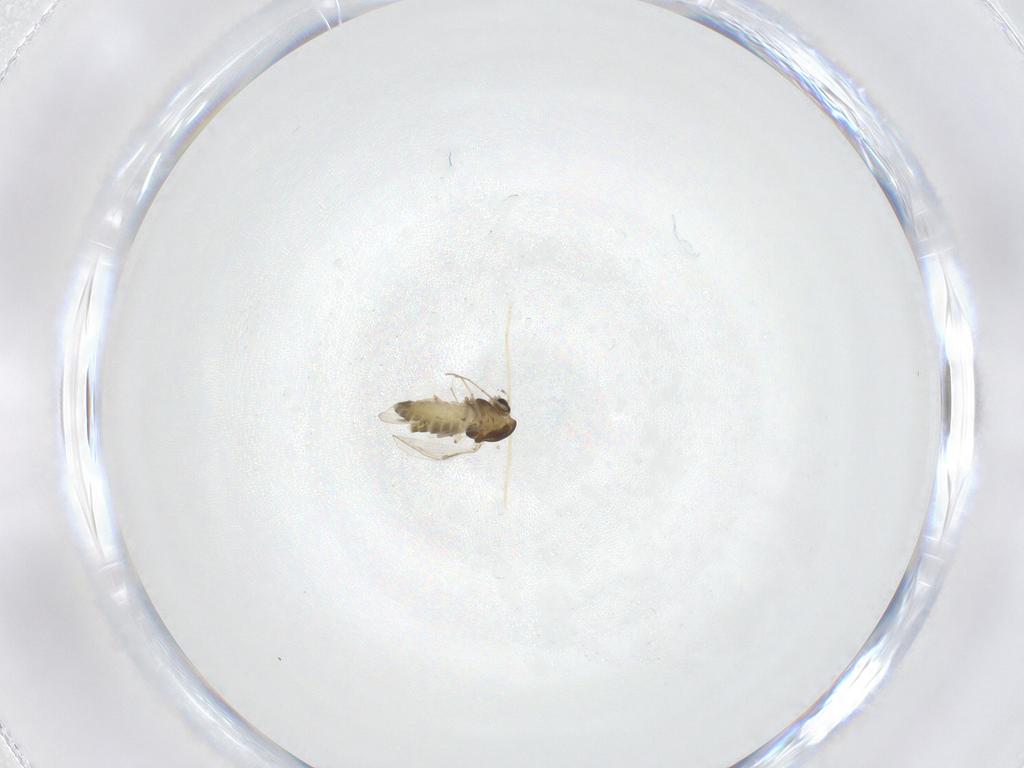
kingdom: Animalia
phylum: Arthropoda
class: Insecta
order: Diptera
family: Chironomidae
